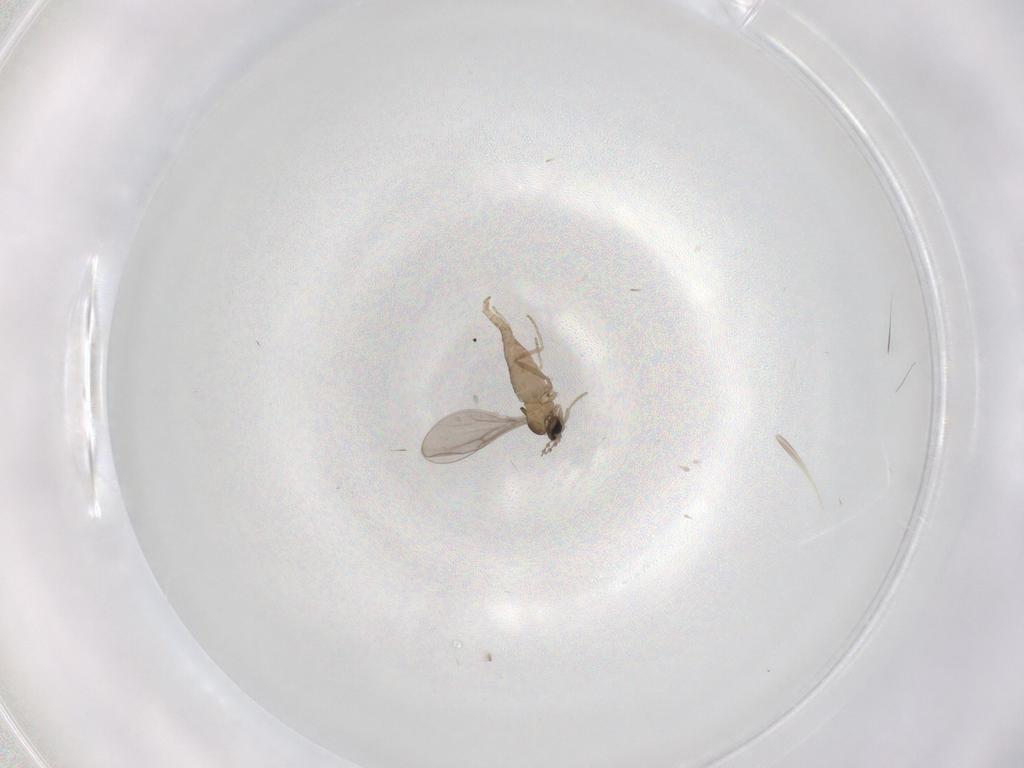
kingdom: Animalia
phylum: Arthropoda
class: Insecta
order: Diptera
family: Cecidomyiidae
